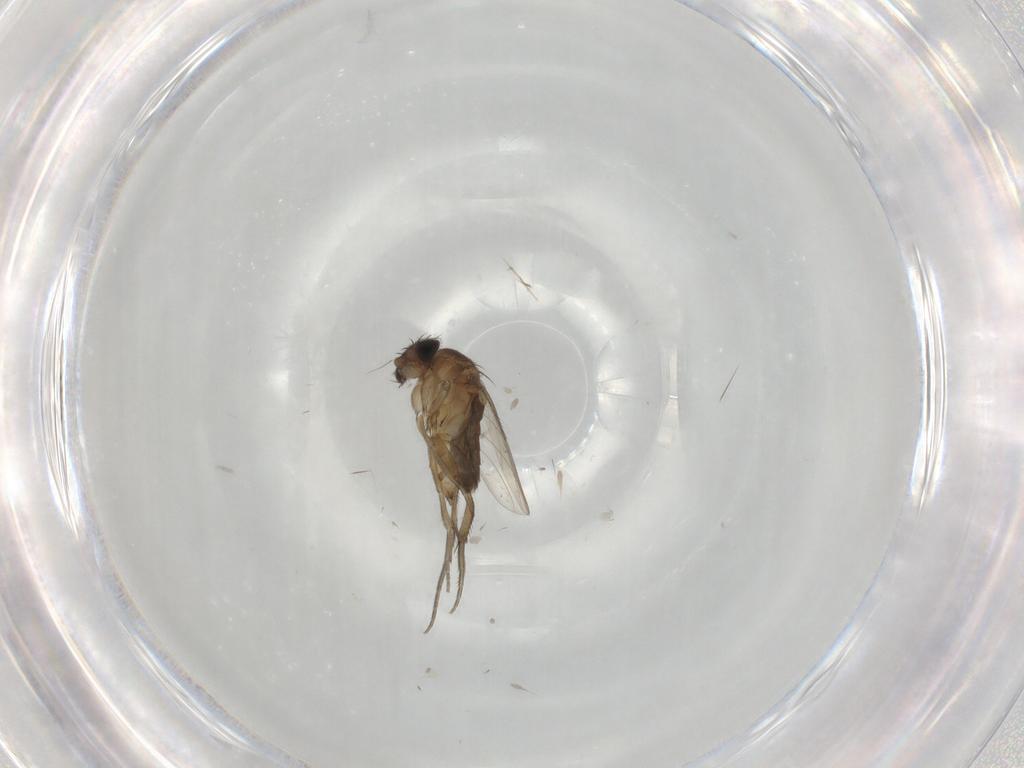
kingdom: Animalia
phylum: Arthropoda
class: Insecta
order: Diptera
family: Phoridae
